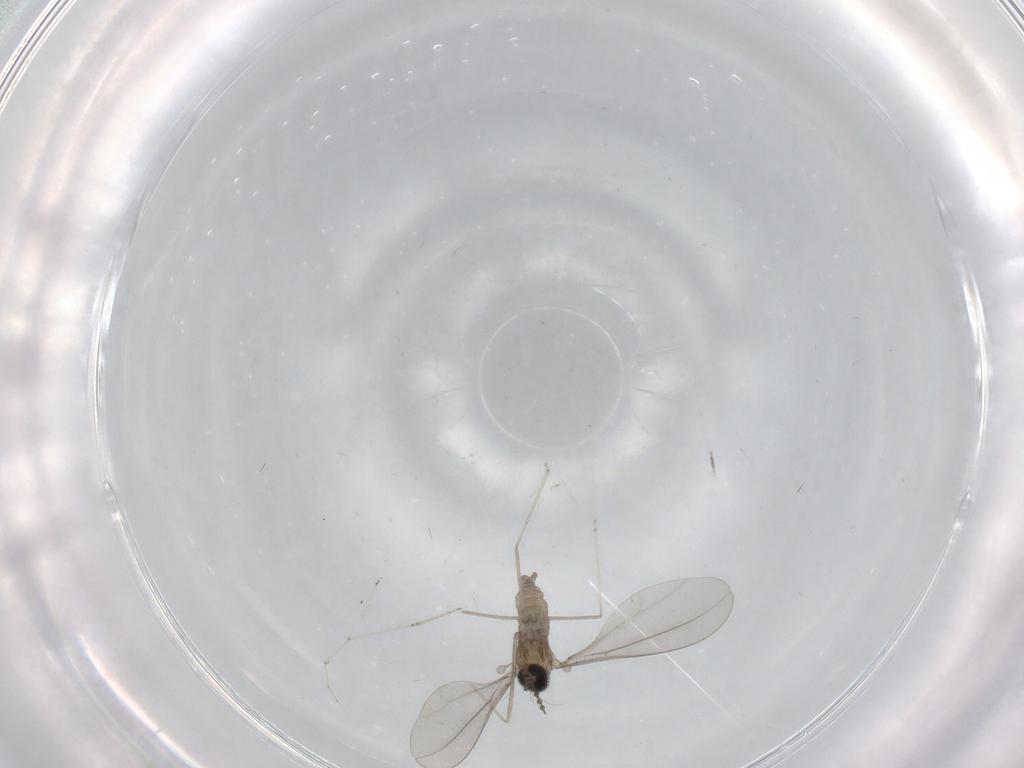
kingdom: Animalia
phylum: Arthropoda
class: Insecta
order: Diptera
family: Cecidomyiidae
